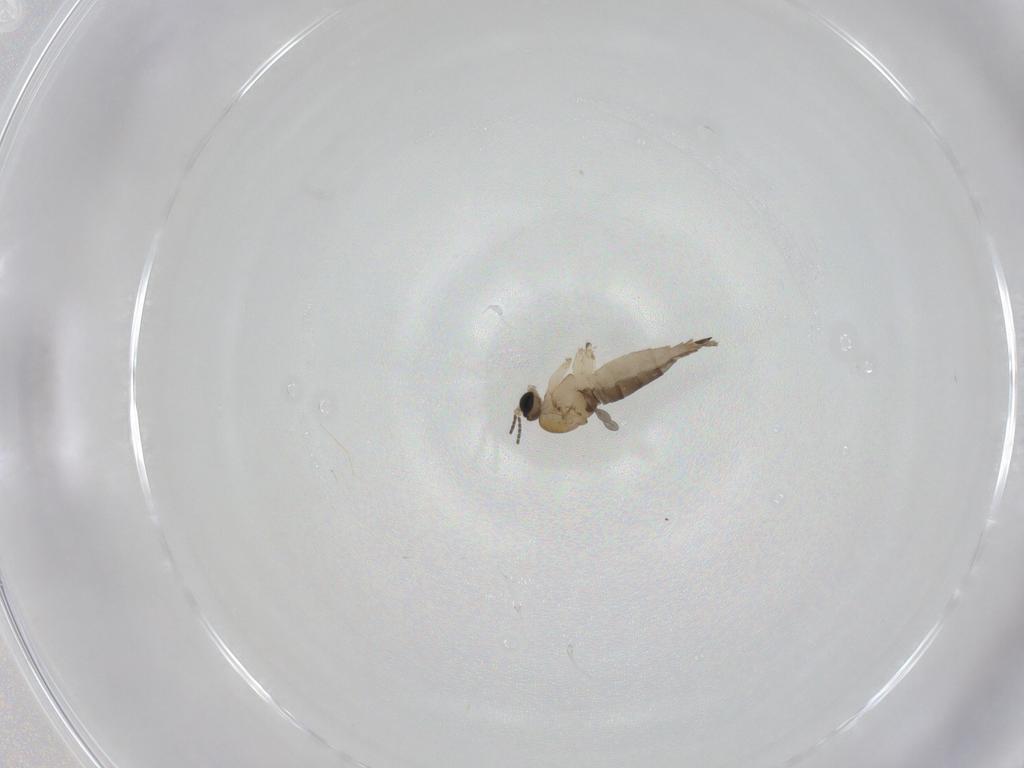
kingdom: Animalia
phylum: Arthropoda
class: Insecta
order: Diptera
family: Sciaridae
